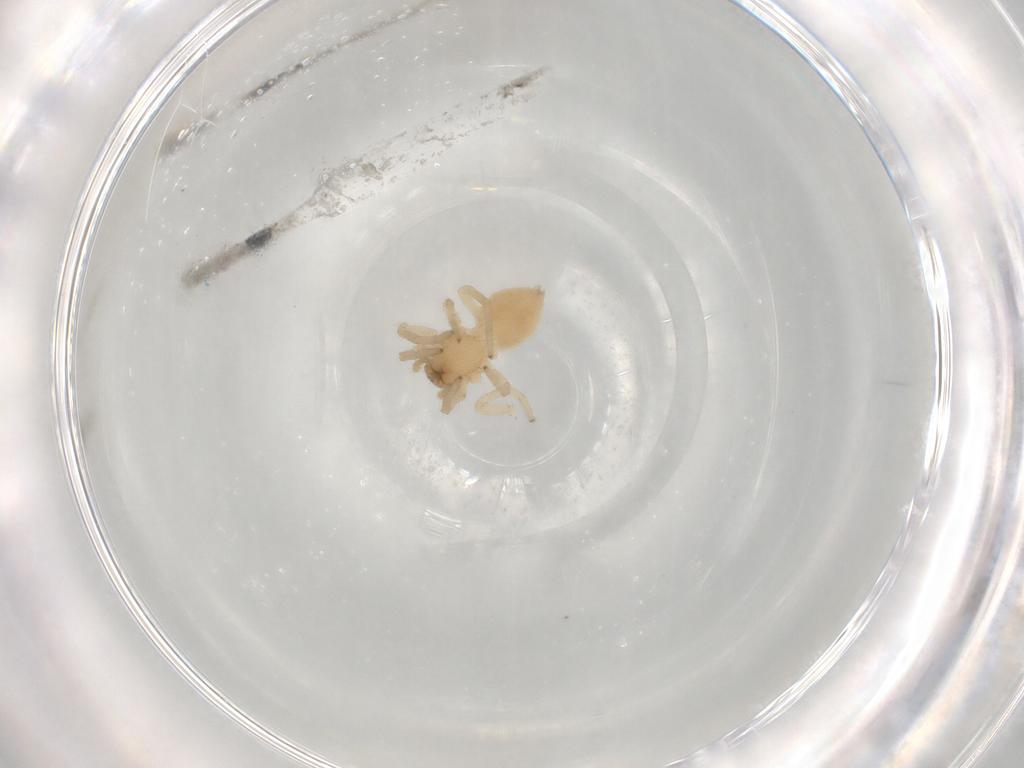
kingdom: Animalia
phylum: Arthropoda
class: Arachnida
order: Araneae
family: Trachelidae
